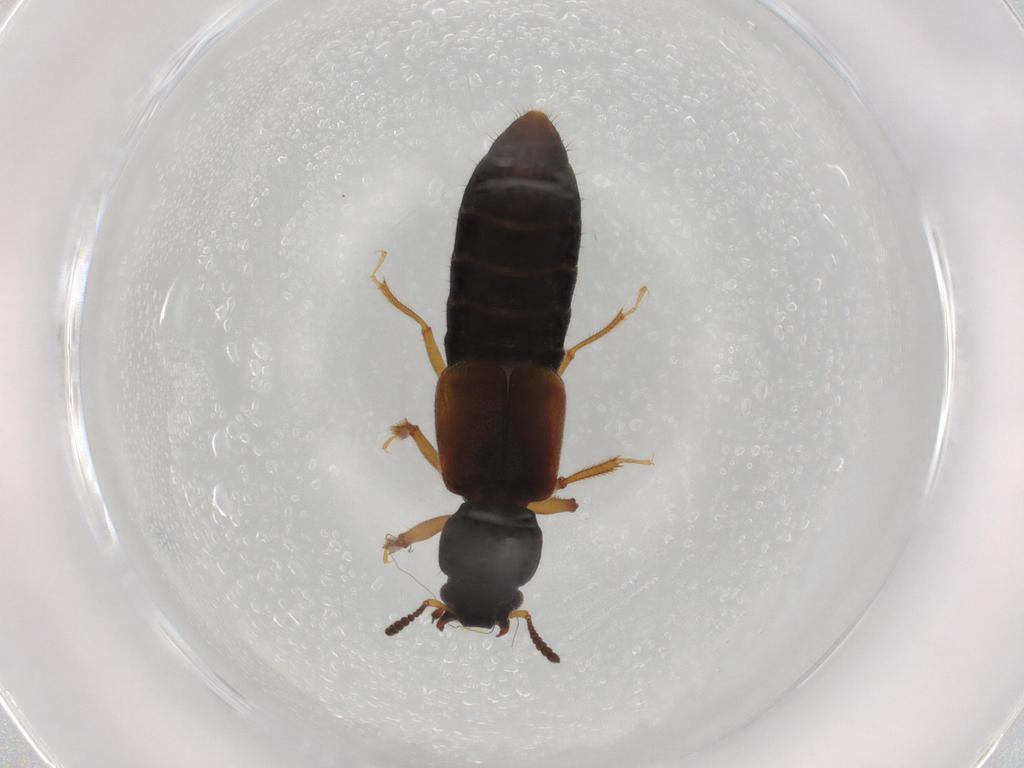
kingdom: Animalia
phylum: Arthropoda
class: Insecta
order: Coleoptera
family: Staphylinidae
